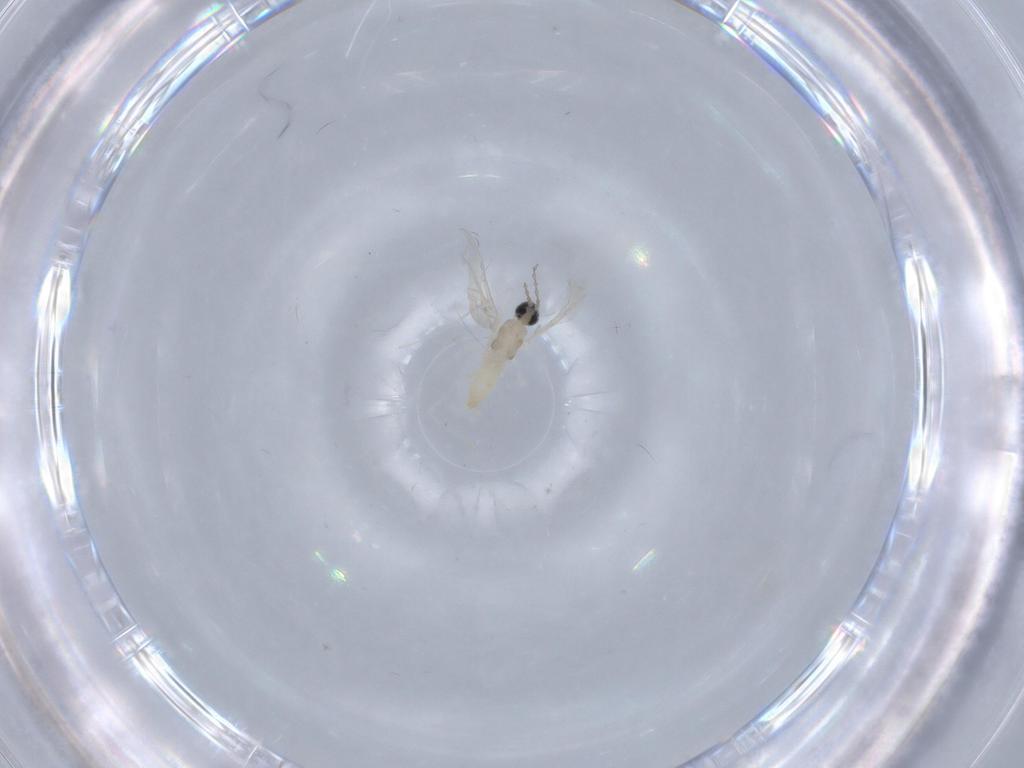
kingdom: Animalia
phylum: Arthropoda
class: Insecta
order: Diptera
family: Cecidomyiidae
